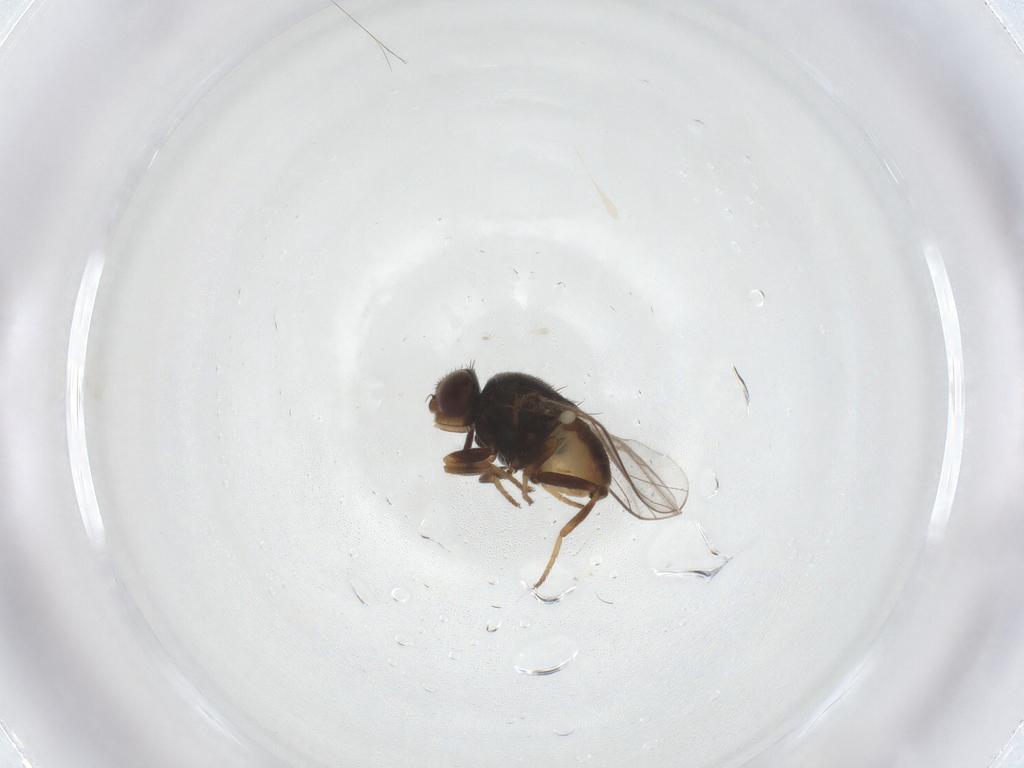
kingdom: Animalia
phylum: Arthropoda
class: Insecta
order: Diptera
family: Chloropidae
